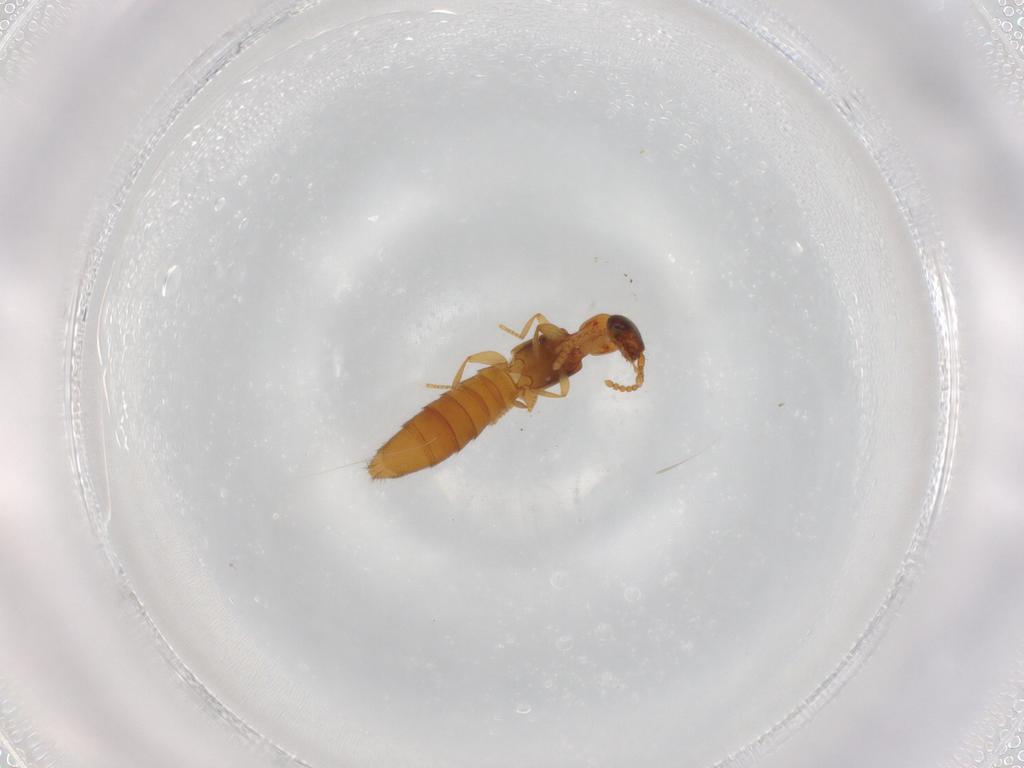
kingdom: Animalia
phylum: Arthropoda
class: Insecta
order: Coleoptera
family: Staphylinidae
